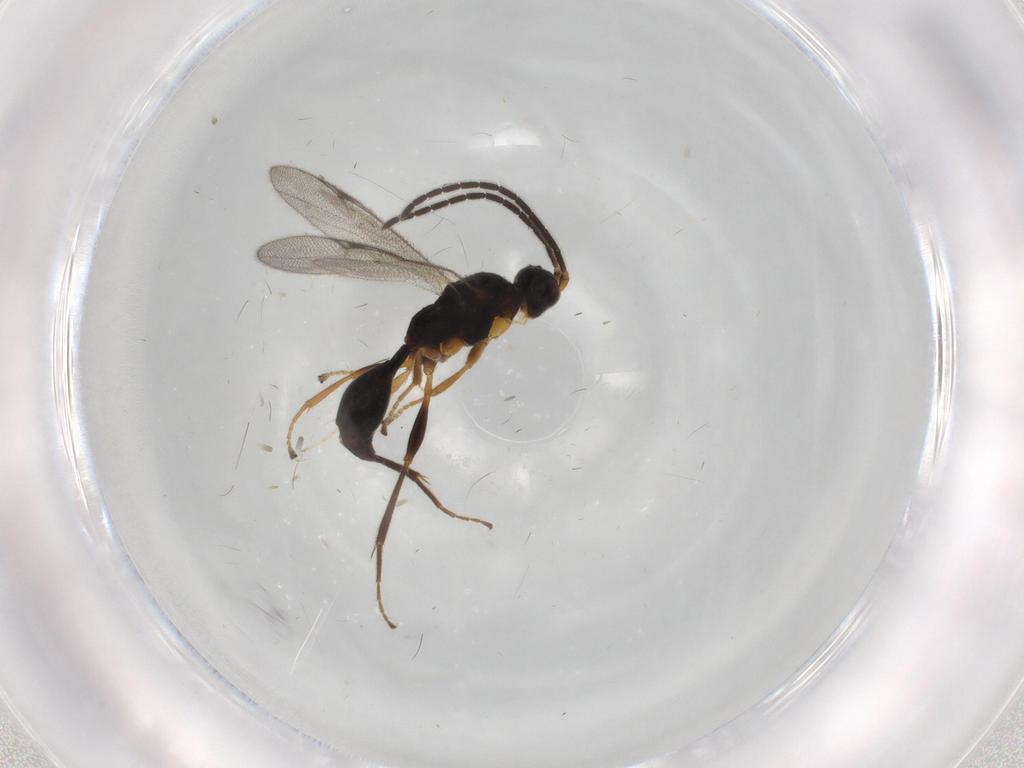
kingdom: Animalia
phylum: Arthropoda
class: Insecta
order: Hymenoptera
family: Proctotrupidae
